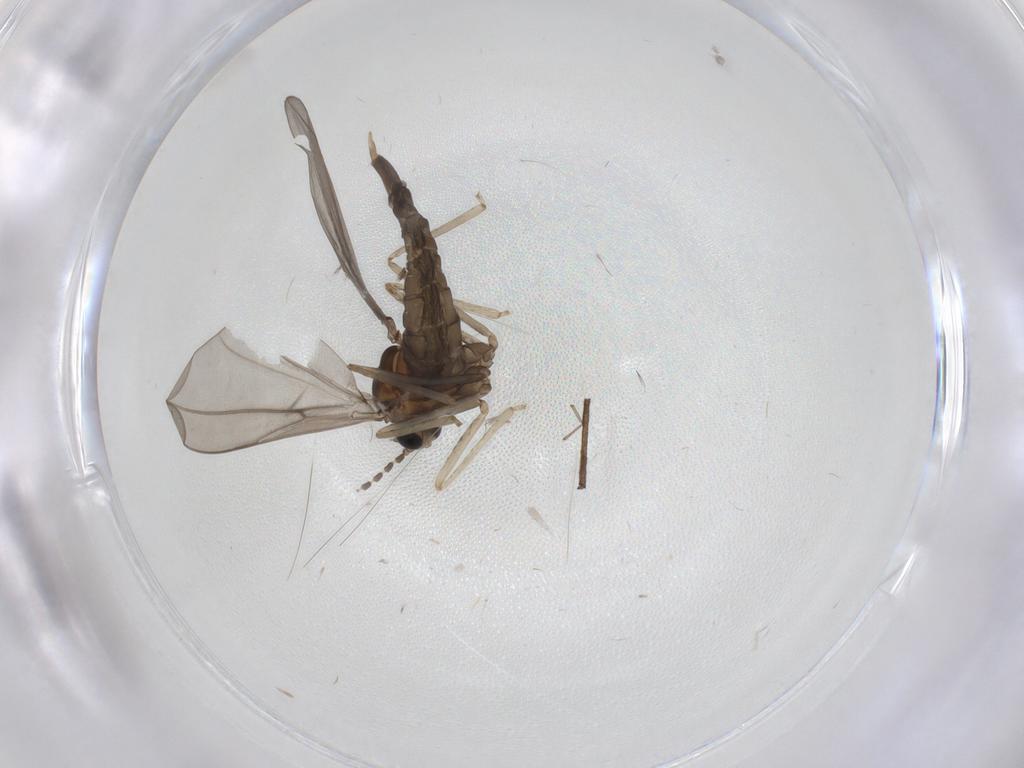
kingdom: Animalia
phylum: Arthropoda
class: Insecta
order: Diptera
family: Cecidomyiidae
